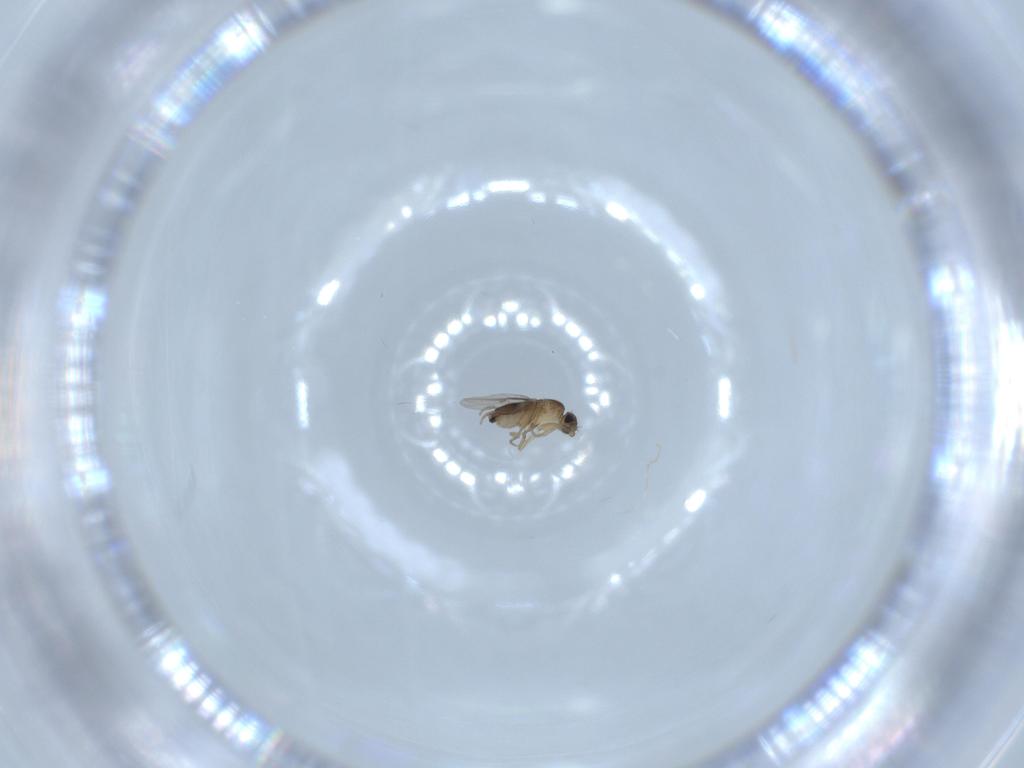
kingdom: Animalia
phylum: Arthropoda
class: Insecta
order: Diptera
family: Phoridae
